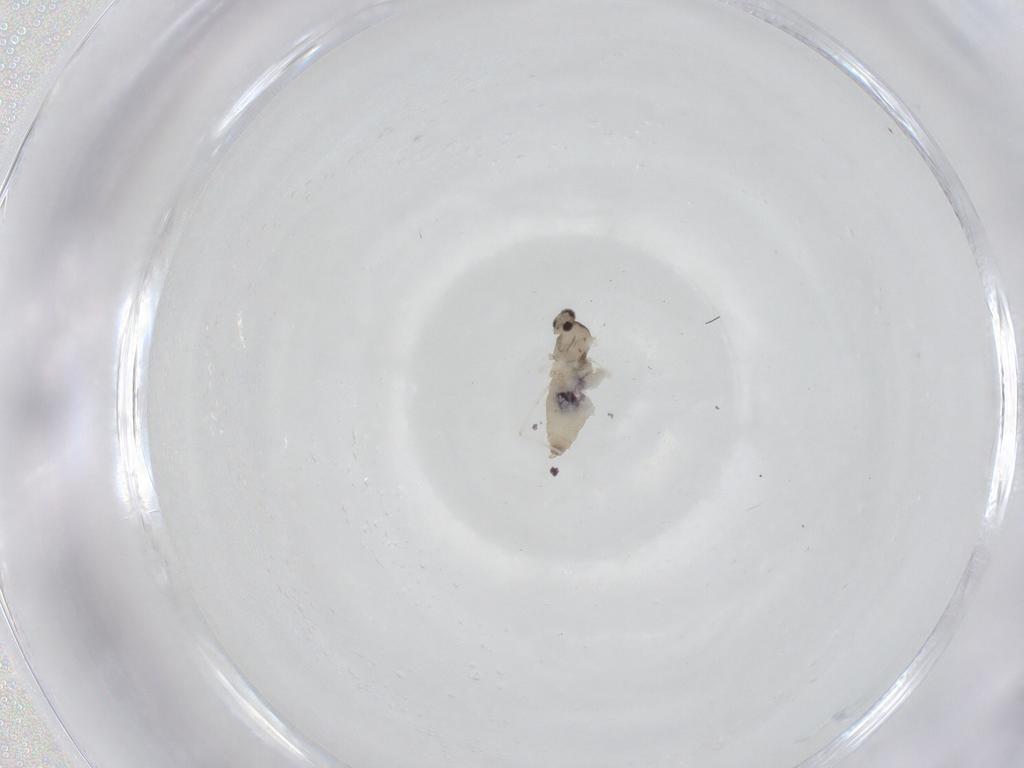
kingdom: Animalia
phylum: Arthropoda
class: Insecta
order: Diptera
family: Cecidomyiidae
